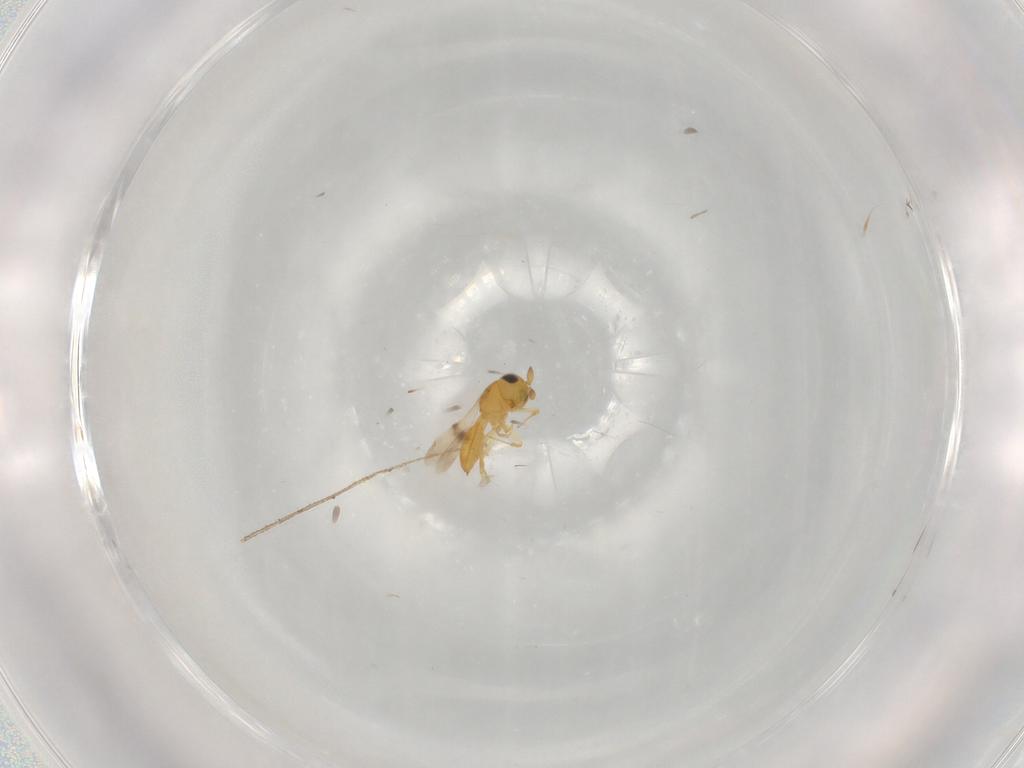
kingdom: Animalia
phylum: Arthropoda
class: Insecta
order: Hymenoptera
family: Scelionidae
